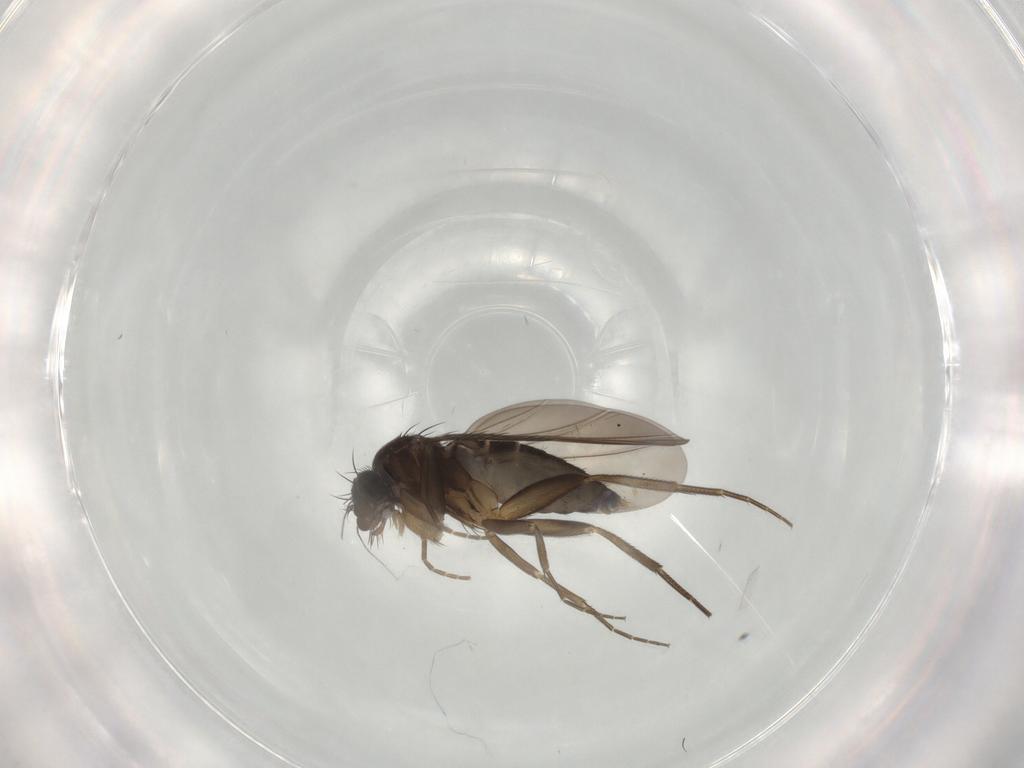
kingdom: Animalia
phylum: Arthropoda
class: Insecta
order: Diptera
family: Phoridae
